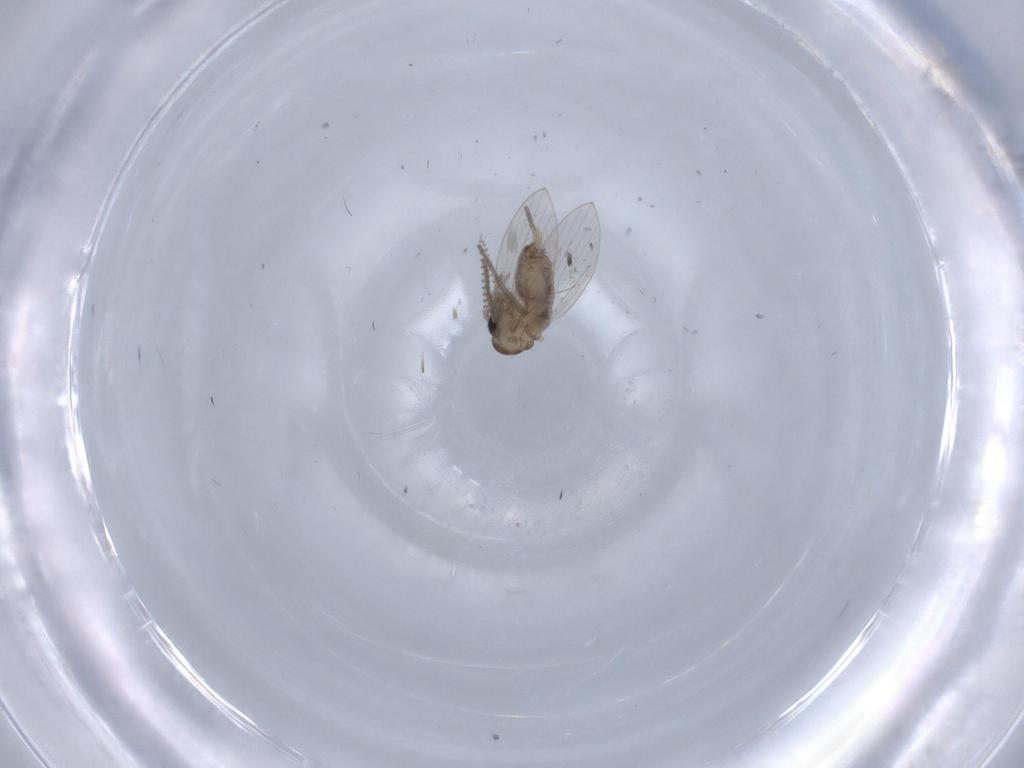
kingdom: Animalia
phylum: Arthropoda
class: Insecta
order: Diptera
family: Psychodidae
